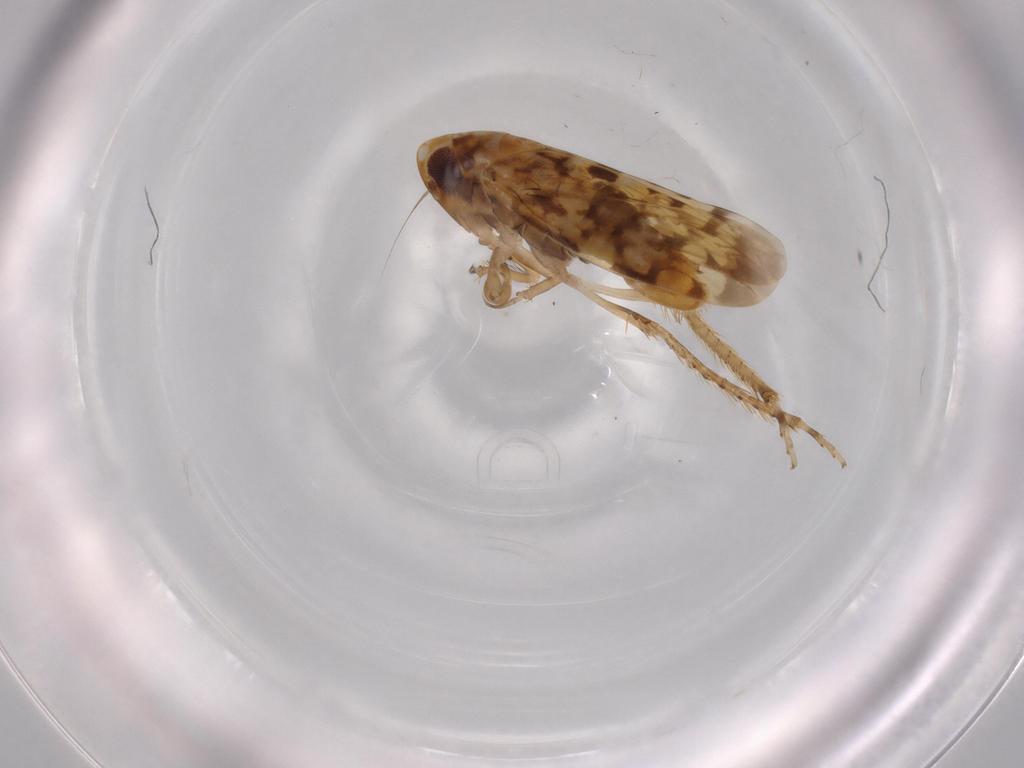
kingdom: Animalia
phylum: Arthropoda
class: Insecta
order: Hemiptera
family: Cicadellidae
